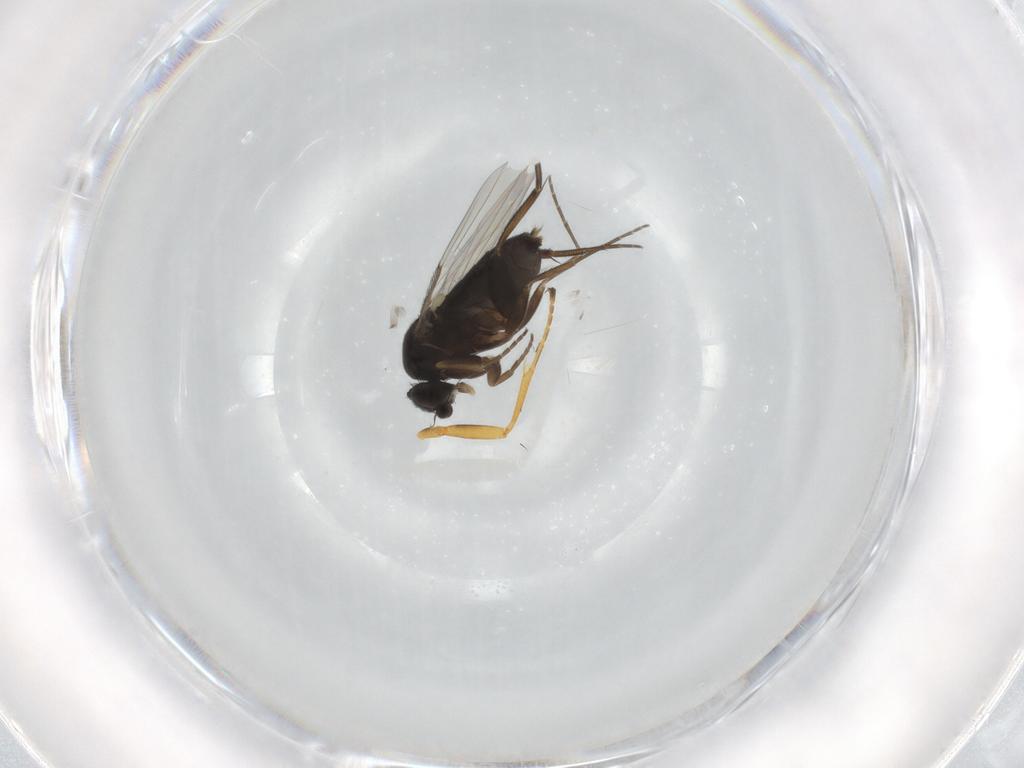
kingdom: Animalia
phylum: Arthropoda
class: Insecta
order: Diptera
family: Phoridae
